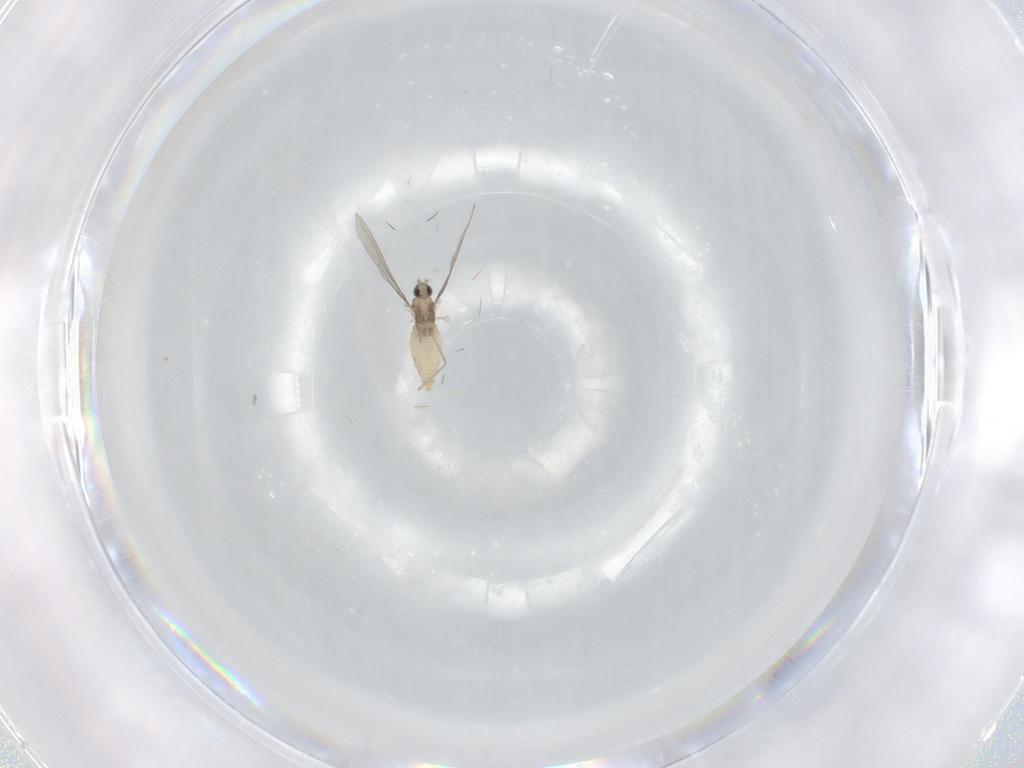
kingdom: Animalia
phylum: Arthropoda
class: Insecta
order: Diptera
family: Cecidomyiidae
